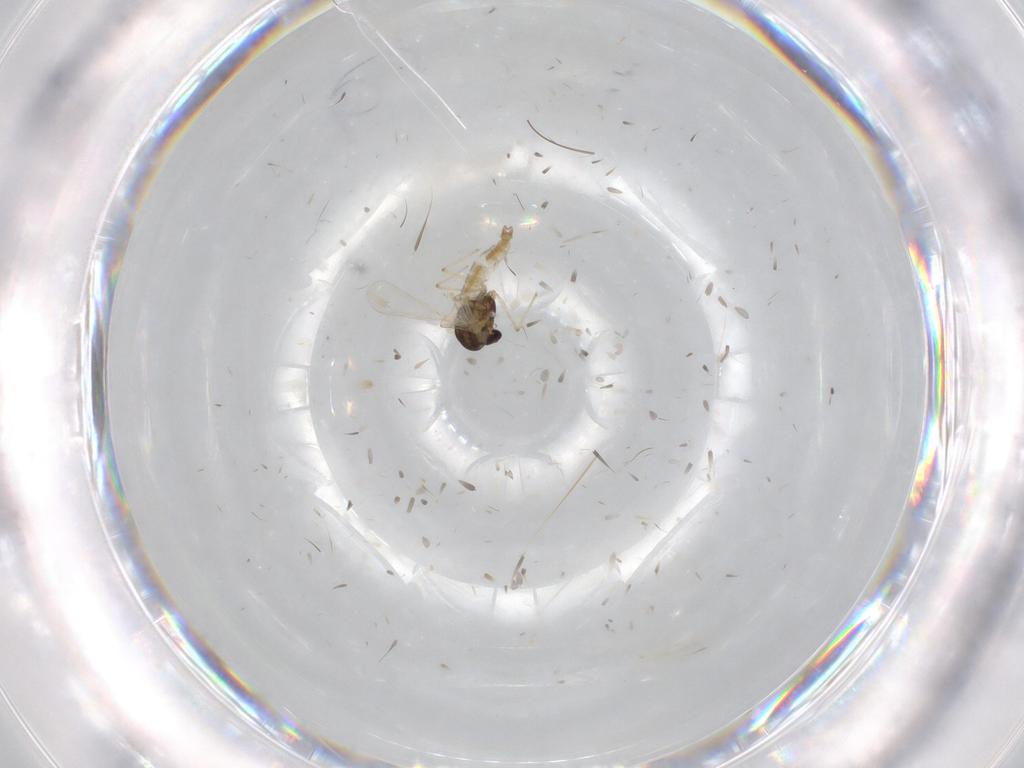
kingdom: Animalia
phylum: Arthropoda
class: Insecta
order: Diptera
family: Chironomidae
